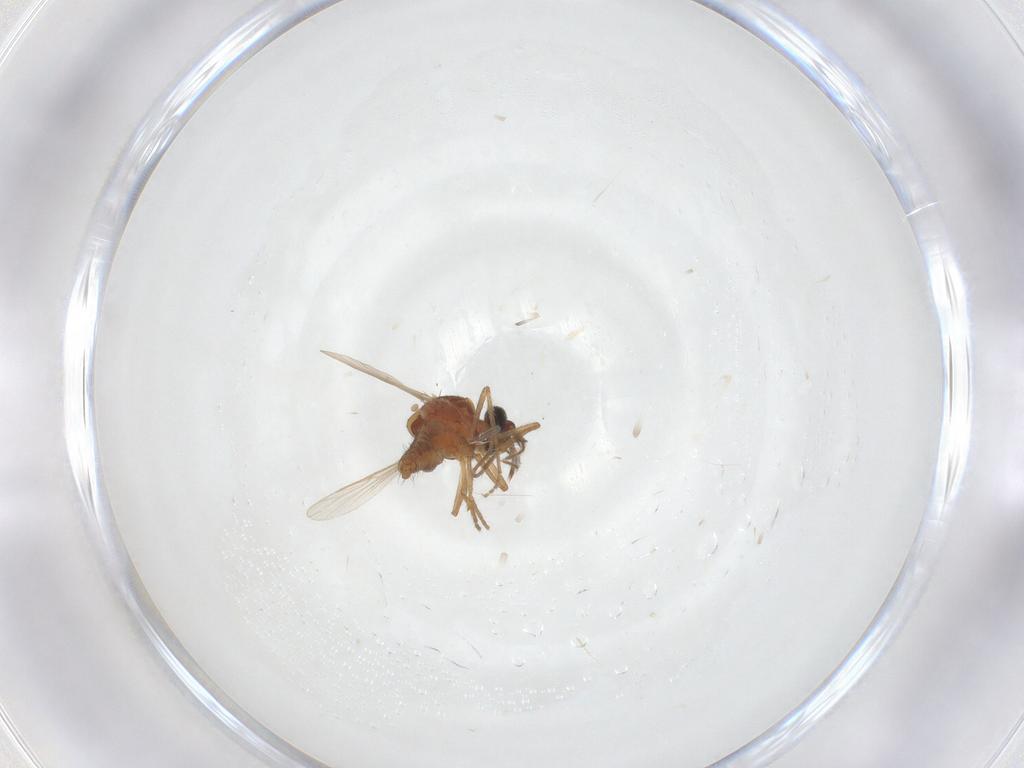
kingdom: Animalia
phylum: Arthropoda
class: Insecta
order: Diptera
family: Ceratopogonidae
